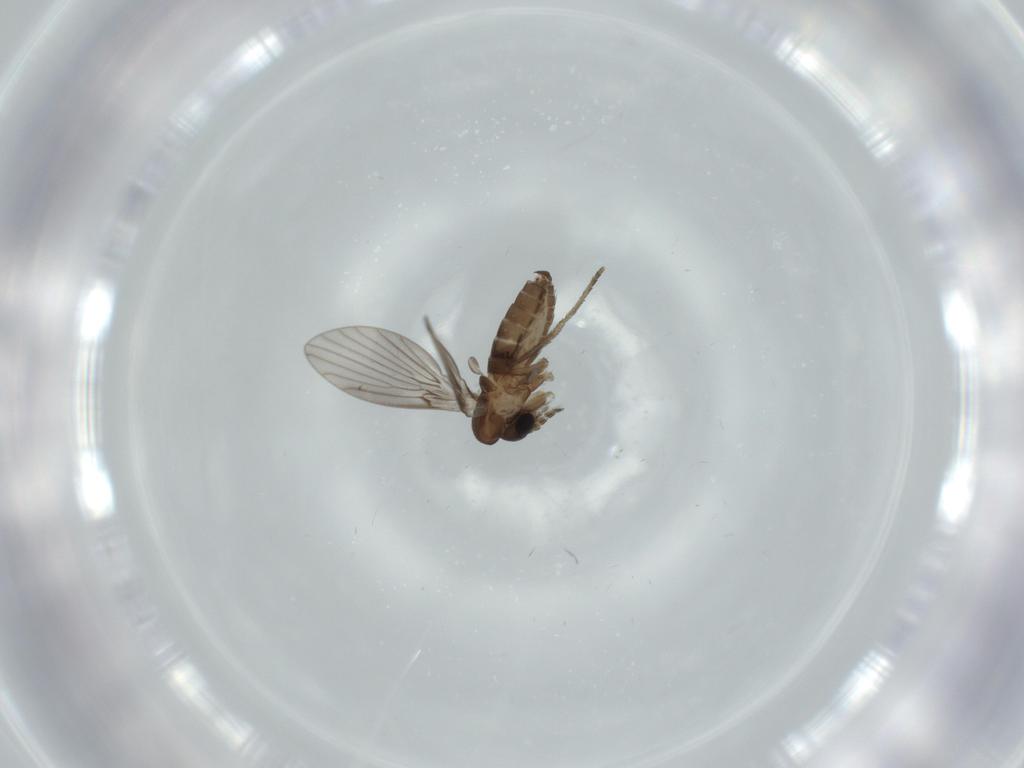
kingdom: Animalia
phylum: Arthropoda
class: Insecta
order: Diptera
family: Psychodidae
